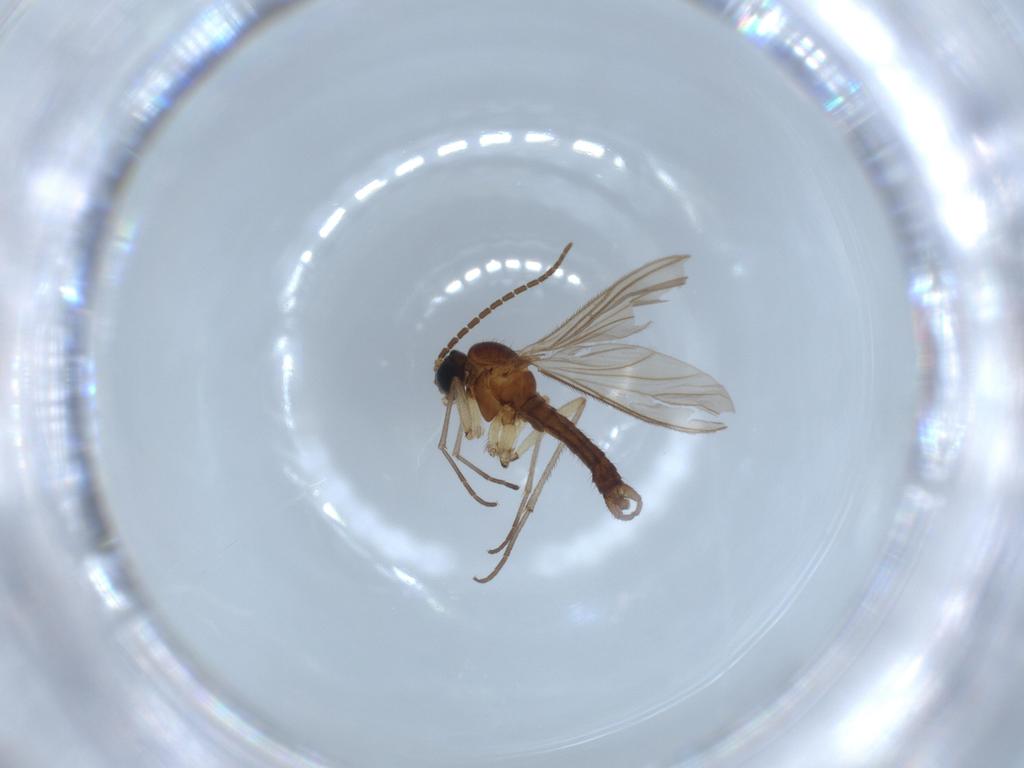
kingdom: Animalia
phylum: Arthropoda
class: Insecta
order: Diptera
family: Sciaridae
